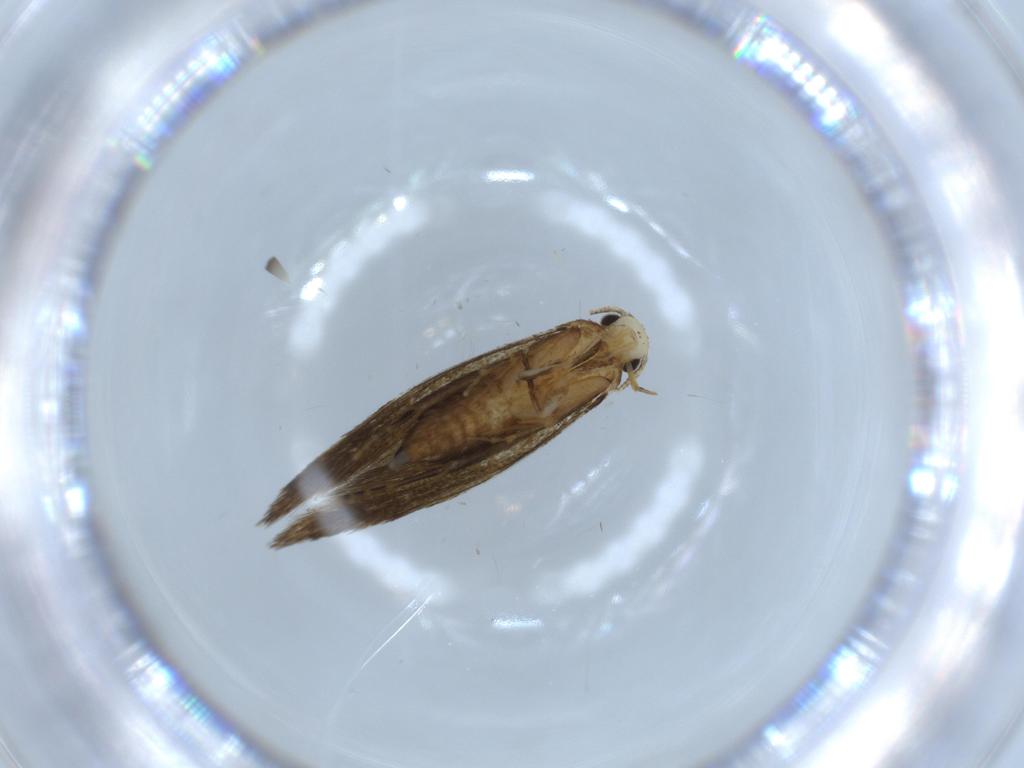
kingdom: Animalia
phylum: Arthropoda
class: Insecta
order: Lepidoptera
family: Tineidae
